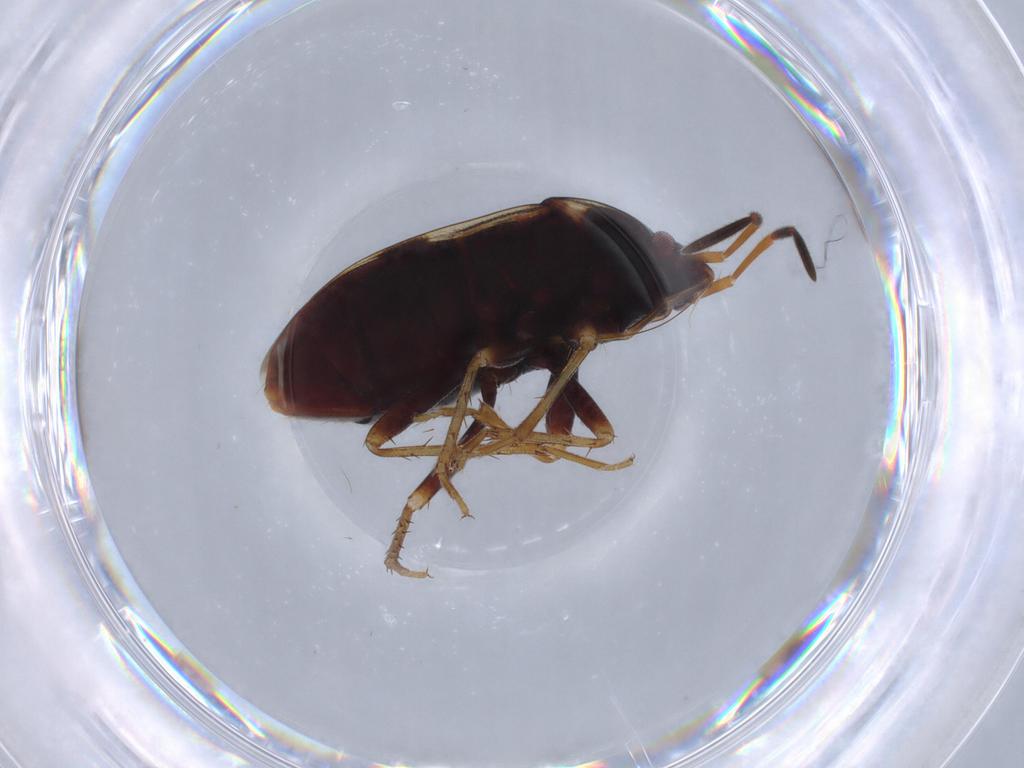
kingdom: Animalia
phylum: Arthropoda
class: Insecta
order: Hemiptera
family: Rhyparochromidae
